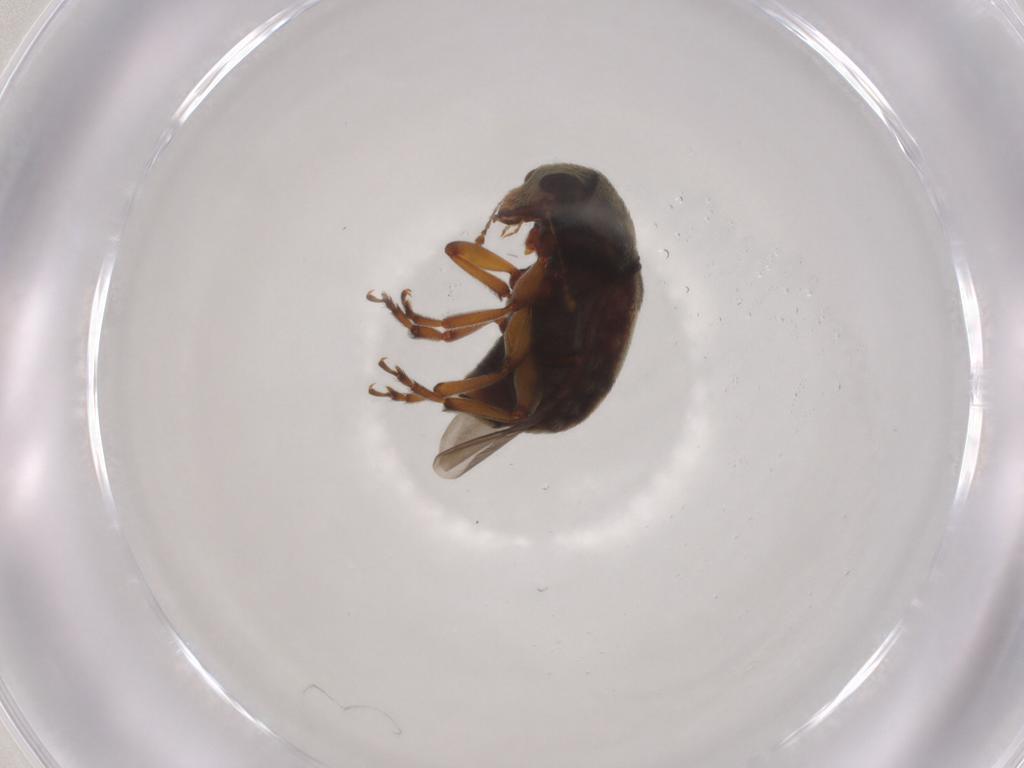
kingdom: Animalia
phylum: Arthropoda
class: Insecta
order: Coleoptera
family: Anthribidae
